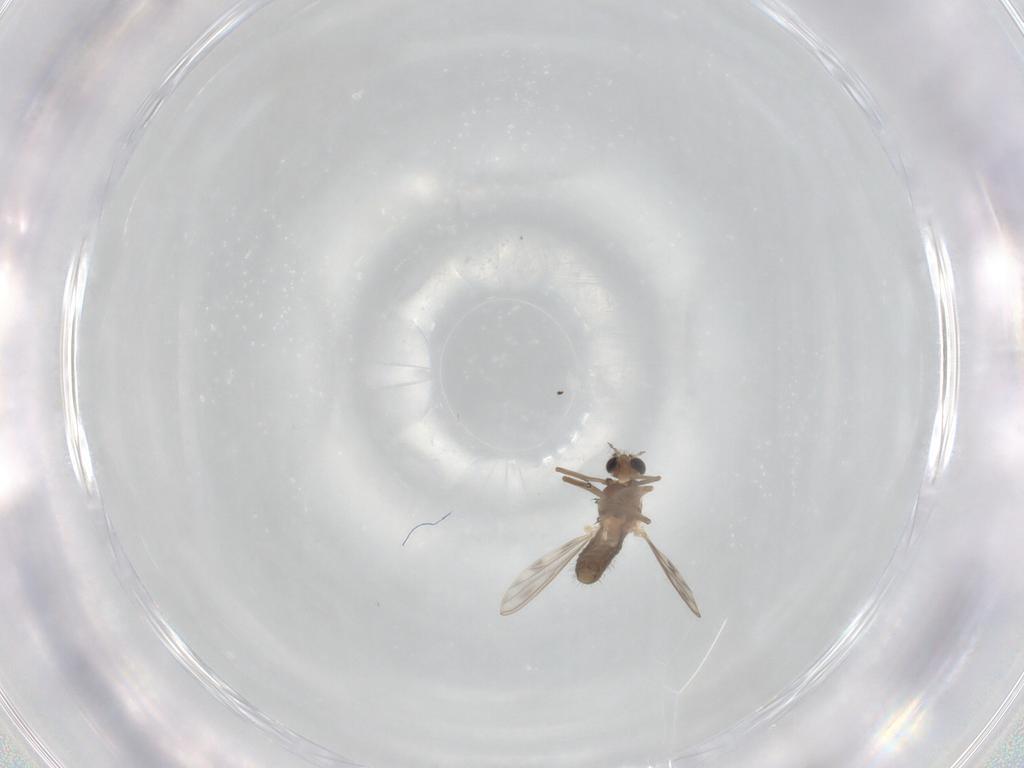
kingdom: Animalia
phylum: Arthropoda
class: Insecta
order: Diptera
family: Chironomidae
